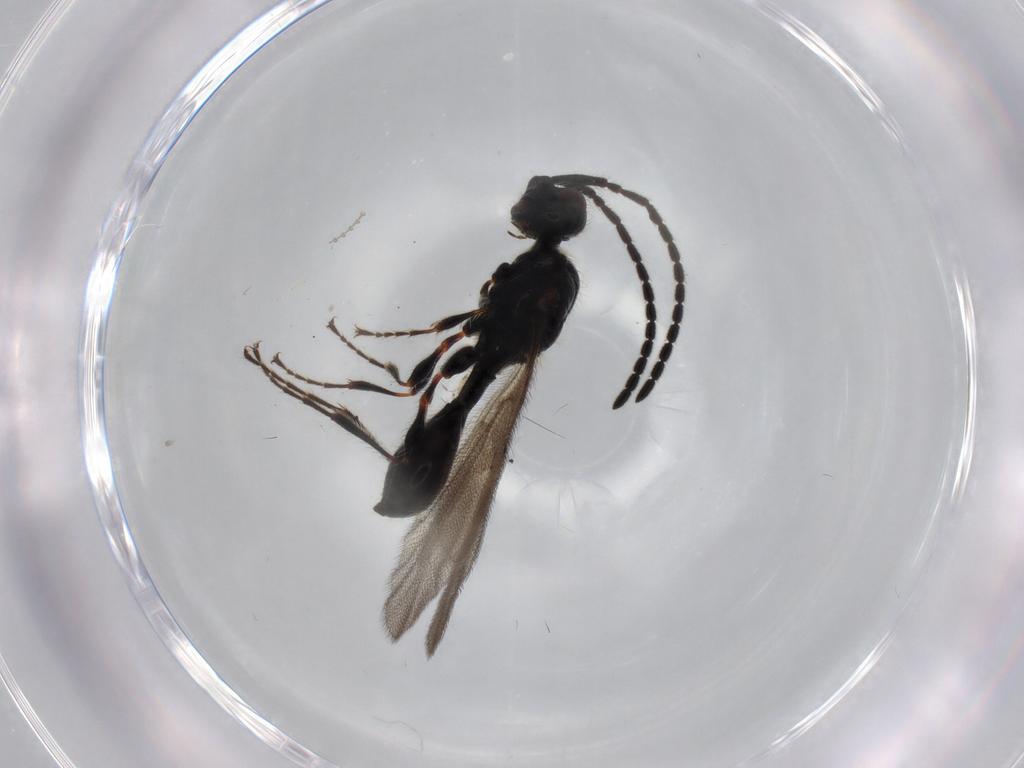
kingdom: Animalia
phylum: Arthropoda
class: Insecta
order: Hymenoptera
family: Diapriidae
